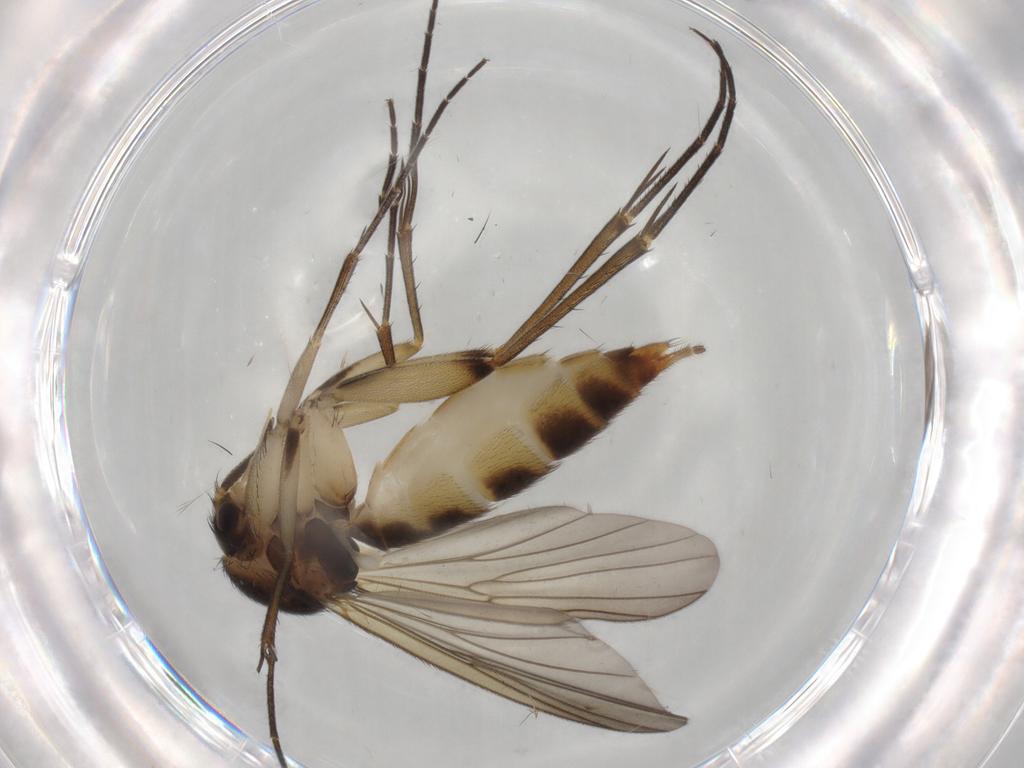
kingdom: Animalia
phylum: Arthropoda
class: Insecta
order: Diptera
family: Mycetophilidae
